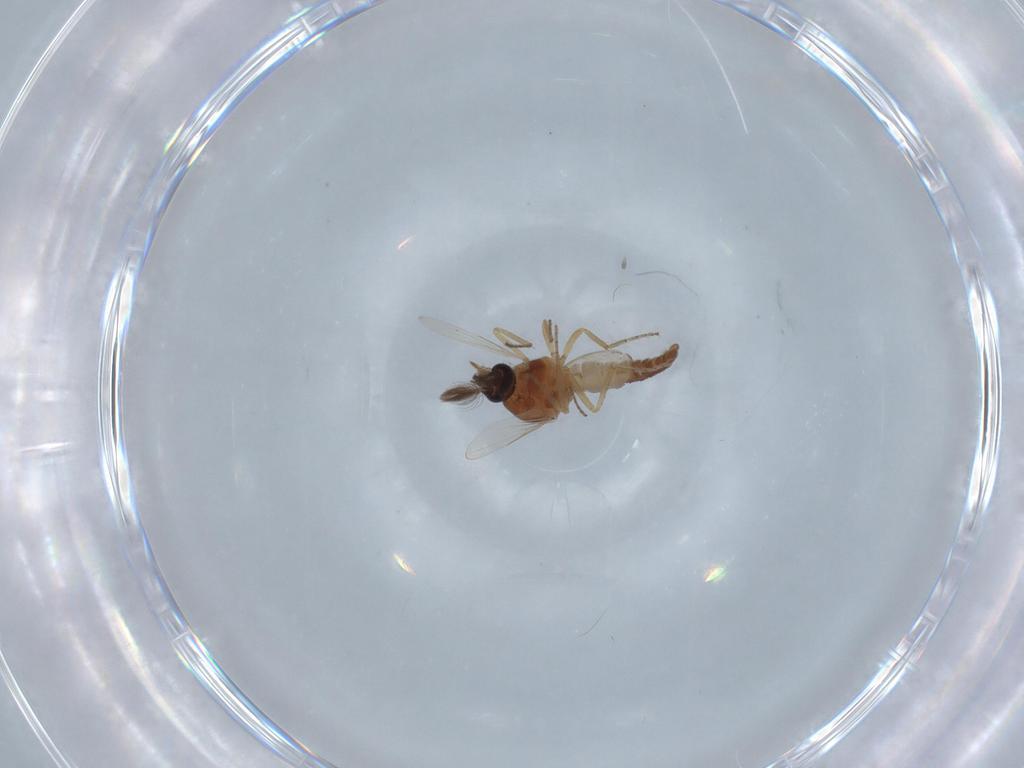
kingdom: Animalia
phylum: Arthropoda
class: Insecta
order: Diptera
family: Ceratopogonidae
